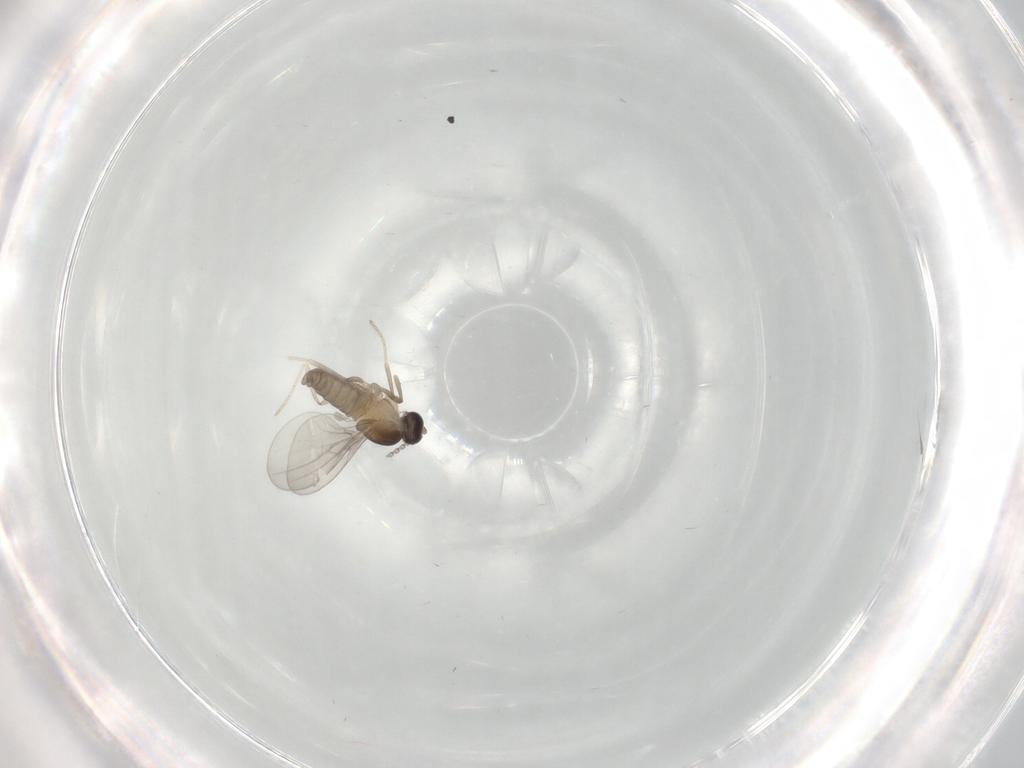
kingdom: Animalia
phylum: Arthropoda
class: Insecta
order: Diptera
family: Cecidomyiidae
